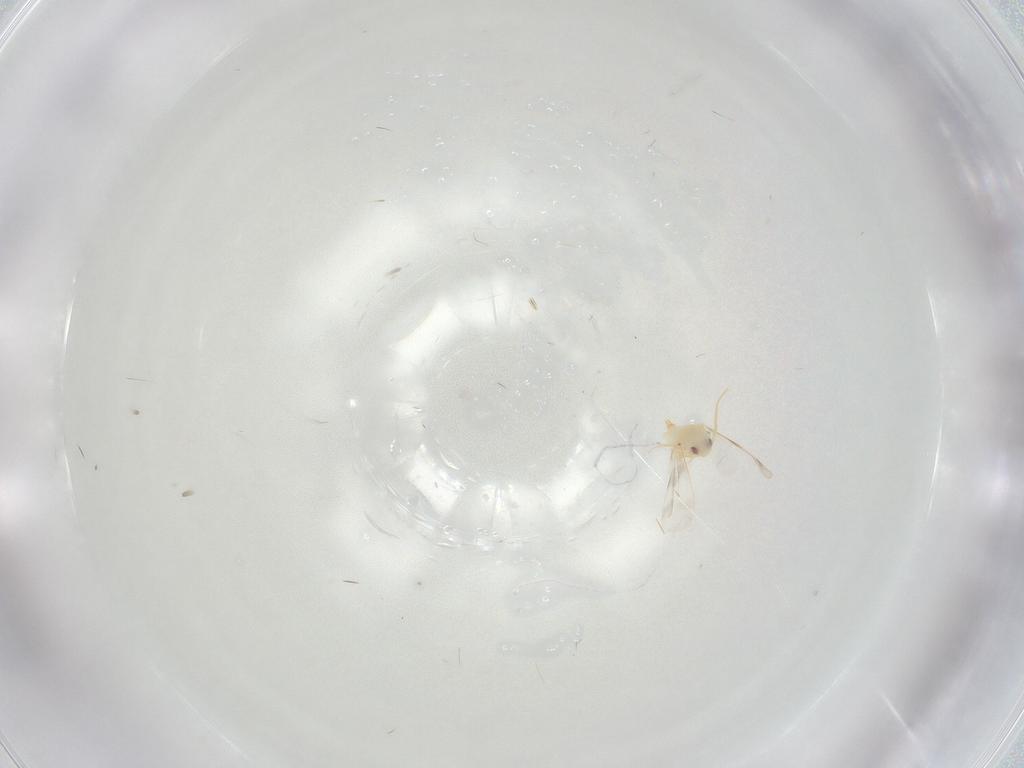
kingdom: Animalia
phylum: Arthropoda
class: Insecta
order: Hemiptera
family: Aleyrodidae
